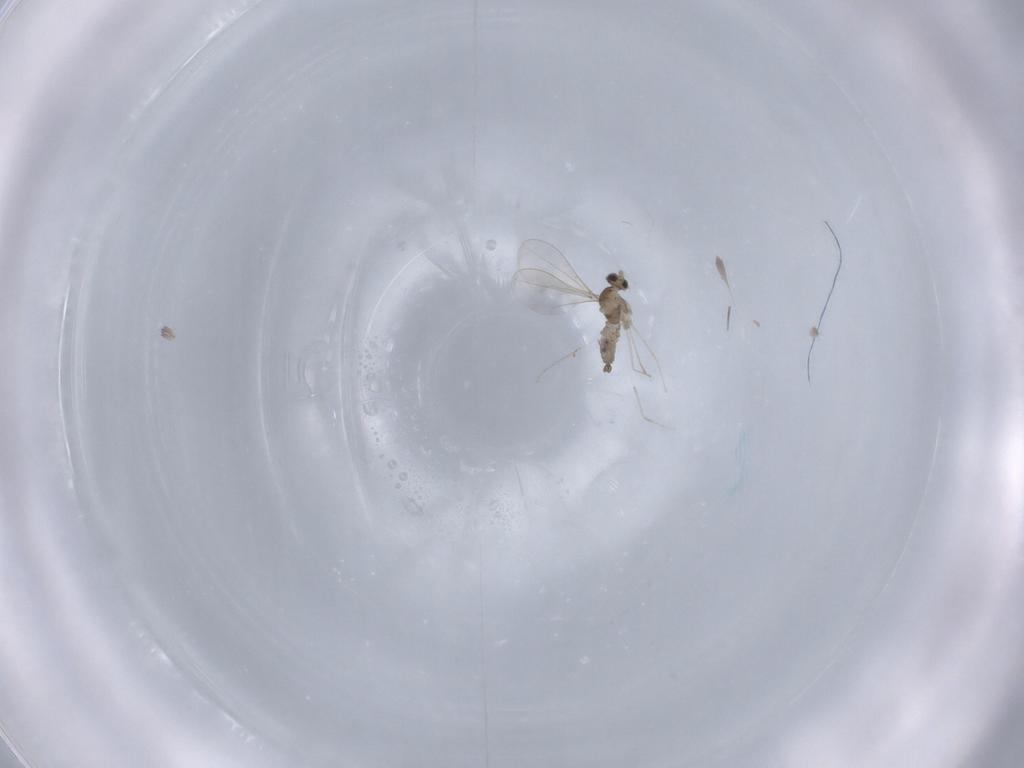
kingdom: Animalia
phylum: Arthropoda
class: Insecta
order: Diptera
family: Cecidomyiidae
